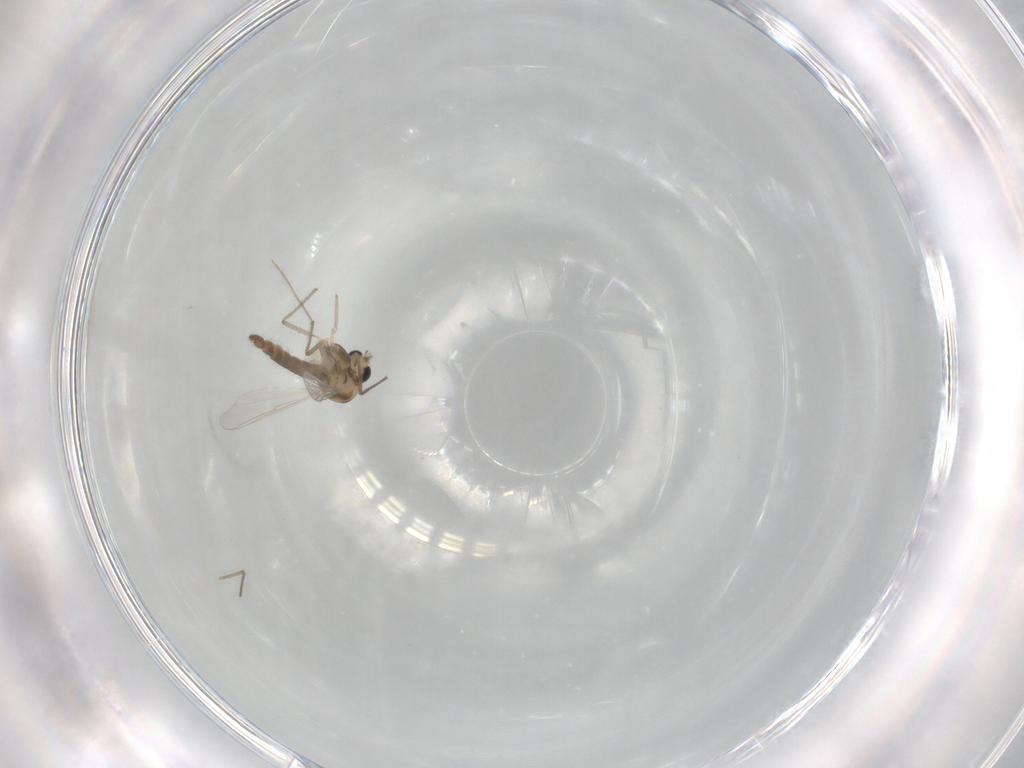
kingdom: Animalia
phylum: Arthropoda
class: Insecta
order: Diptera
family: Chironomidae
